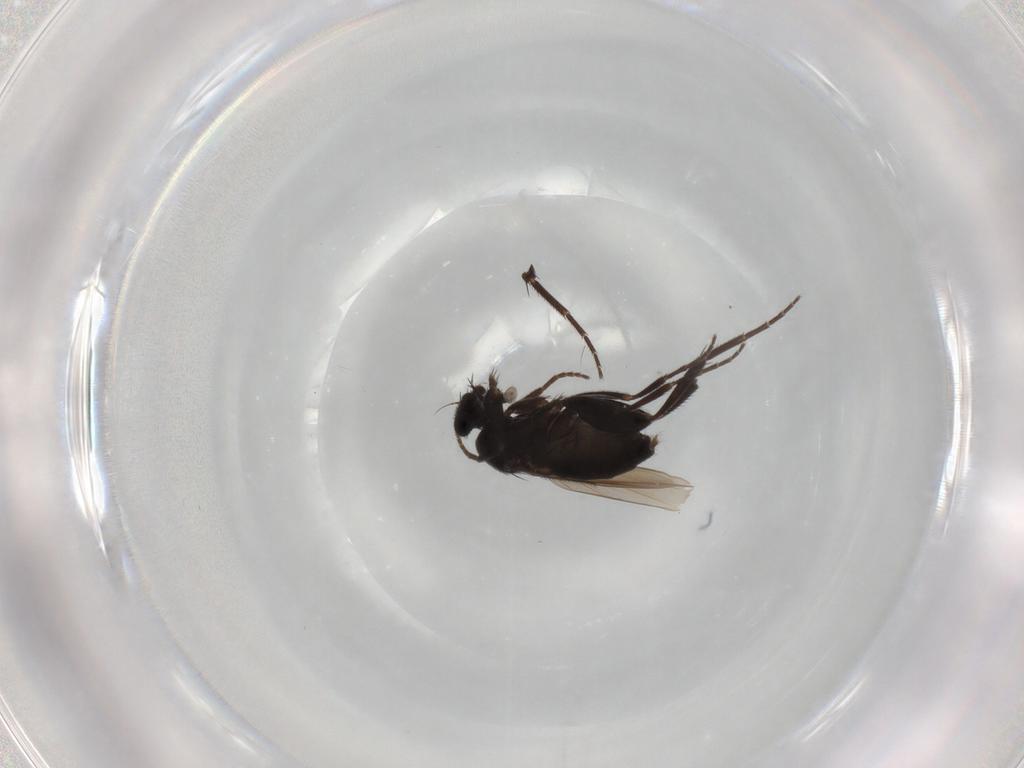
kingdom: Animalia
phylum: Arthropoda
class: Insecta
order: Diptera
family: Phoridae
